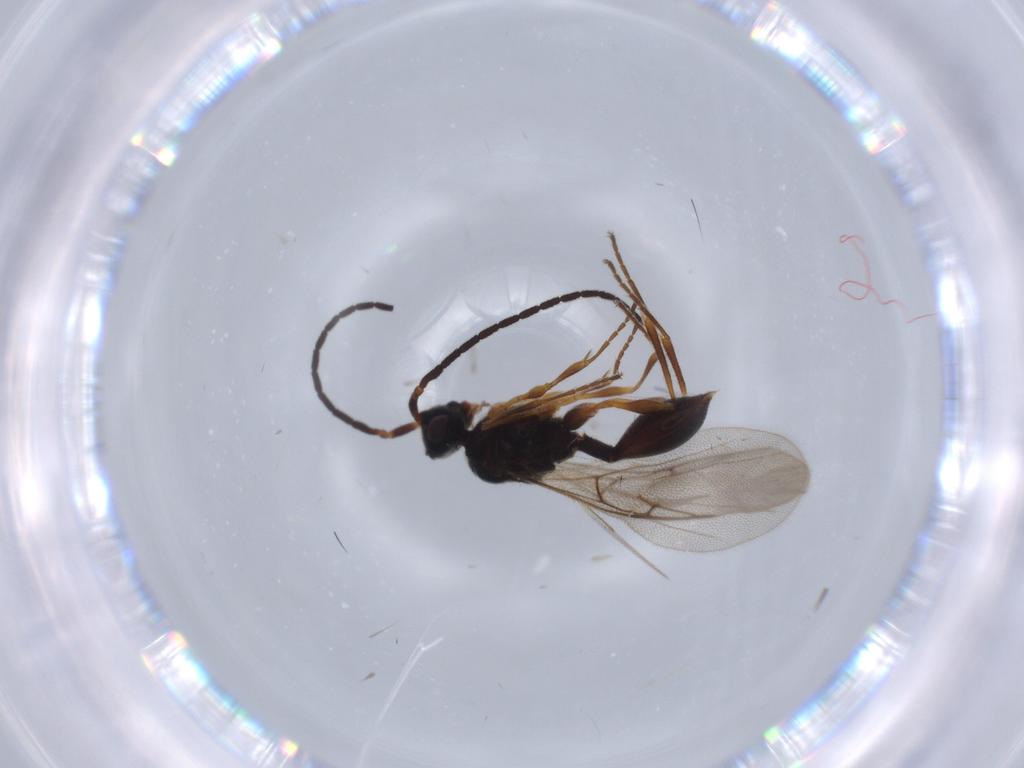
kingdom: Animalia
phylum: Arthropoda
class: Insecta
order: Hymenoptera
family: Diapriidae
